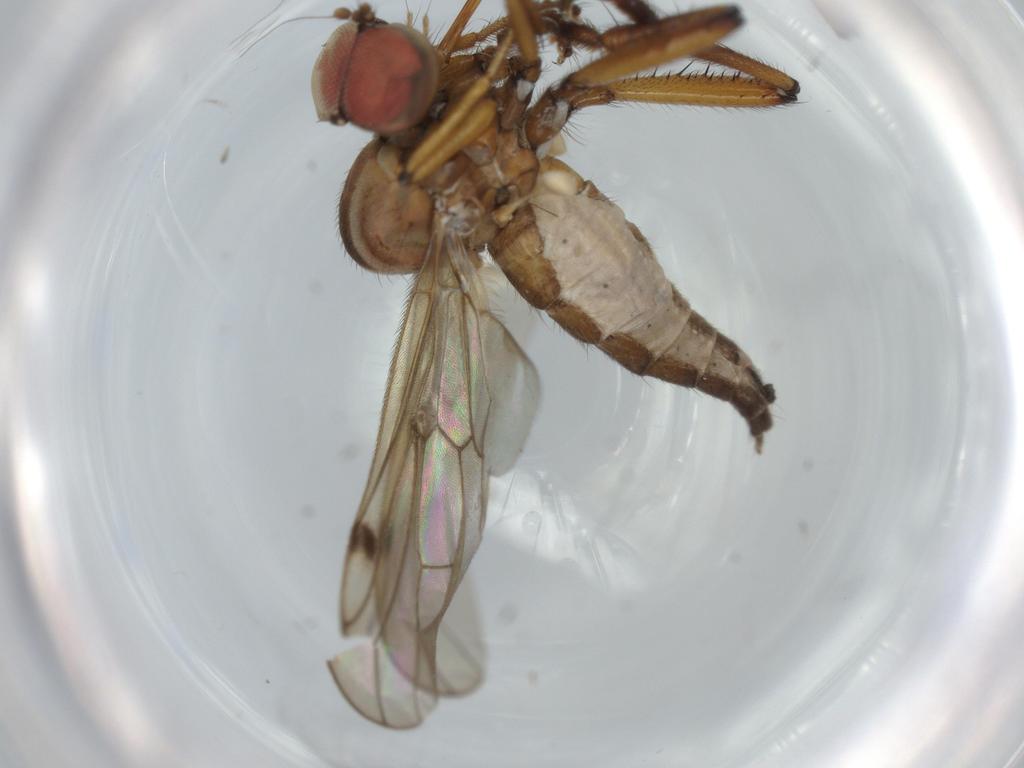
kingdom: Animalia
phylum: Arthropoda
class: Insecta
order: Diptera
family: Hybotidae
